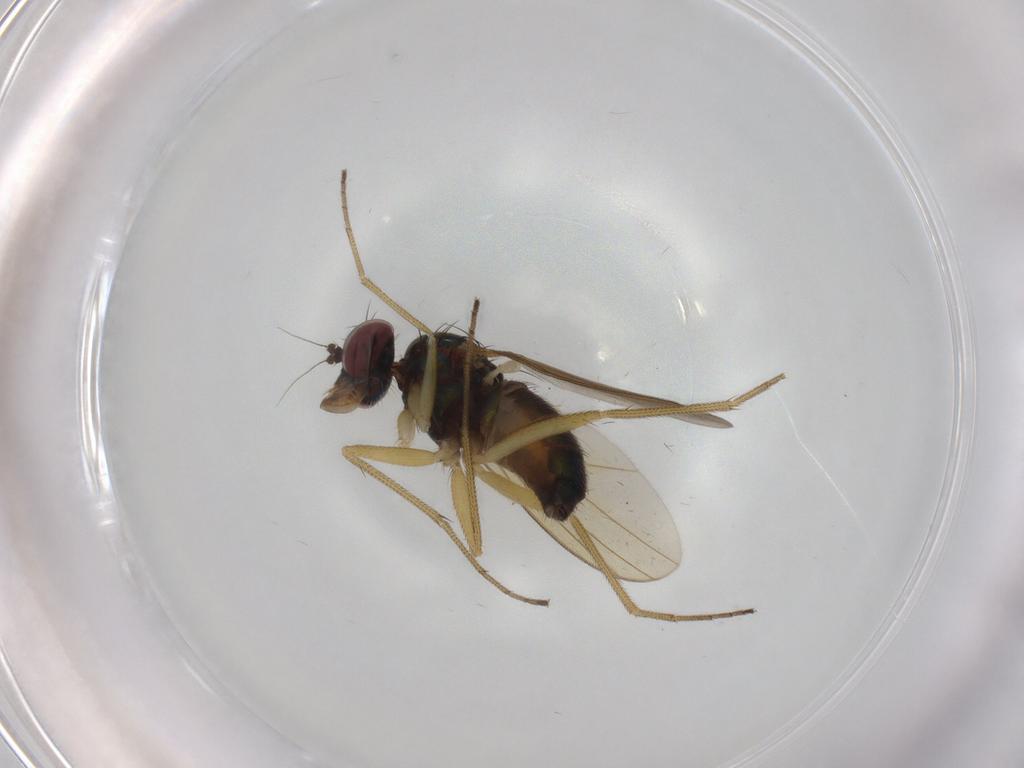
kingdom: Animalia
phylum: Arthropoda
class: Insecta
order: Diptera
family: Dolichopodidae
